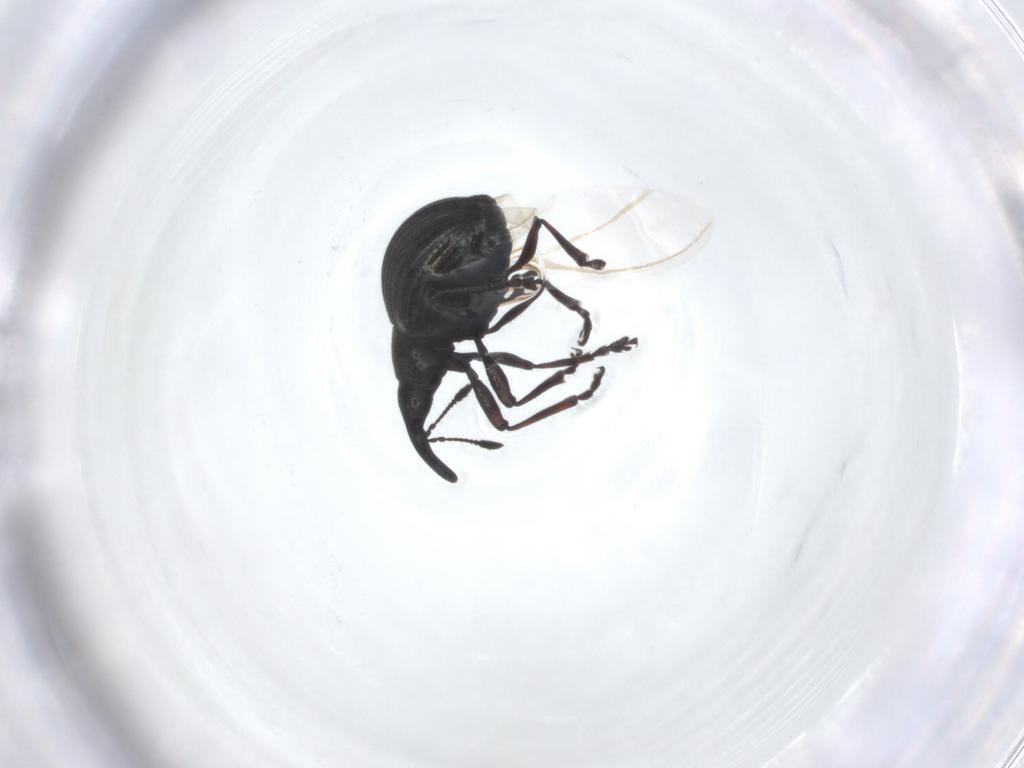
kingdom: Animalia
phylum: Arthropoda
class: Insecta
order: Coleoptera
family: Brentidae
